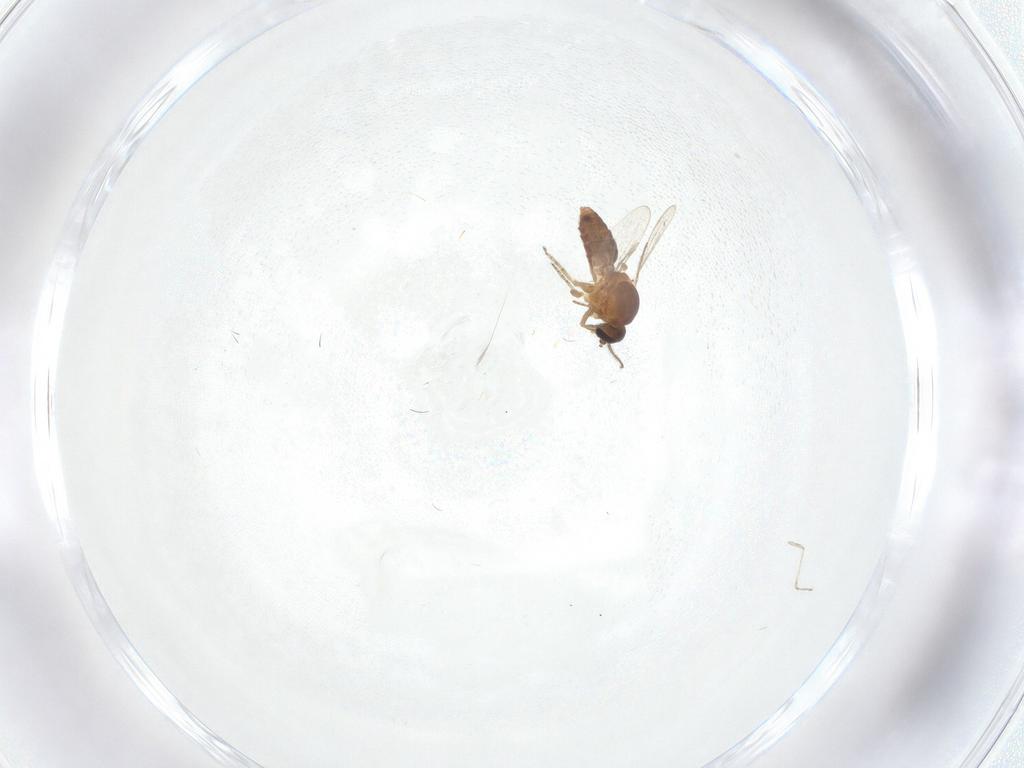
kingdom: Animalia
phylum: Arthropoda
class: Insecta
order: Diptera
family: Ceratopogonidae
